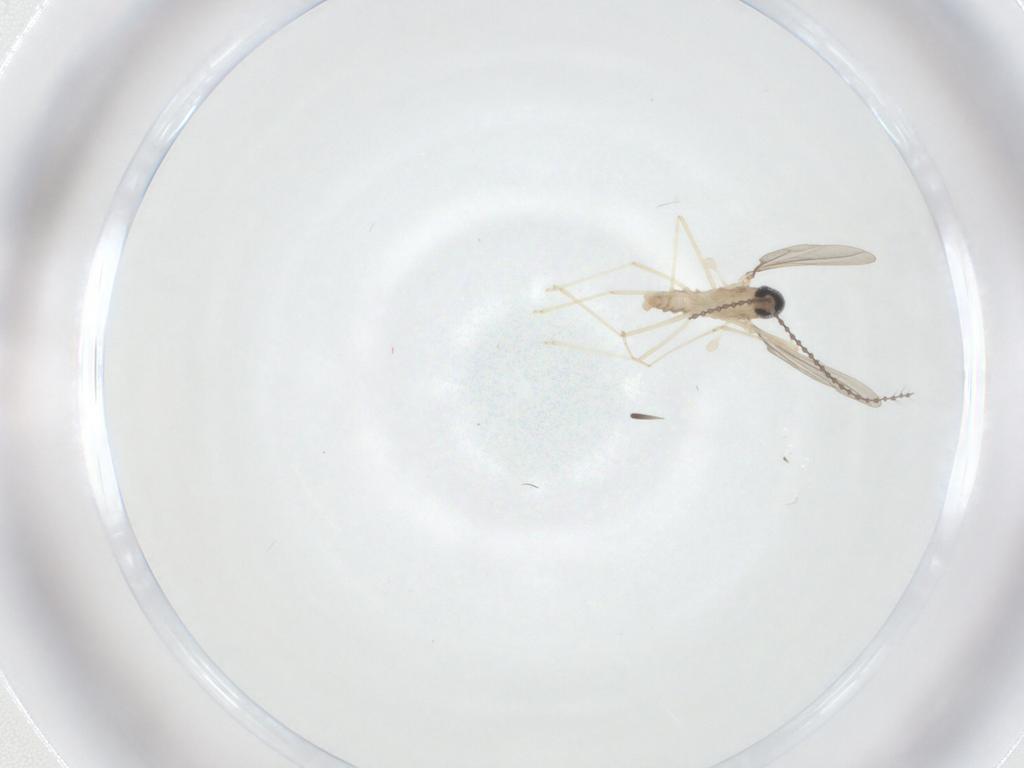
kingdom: Animalia
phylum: Arthropoda
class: Insecta
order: Diptera
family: Cecidomyiidae
